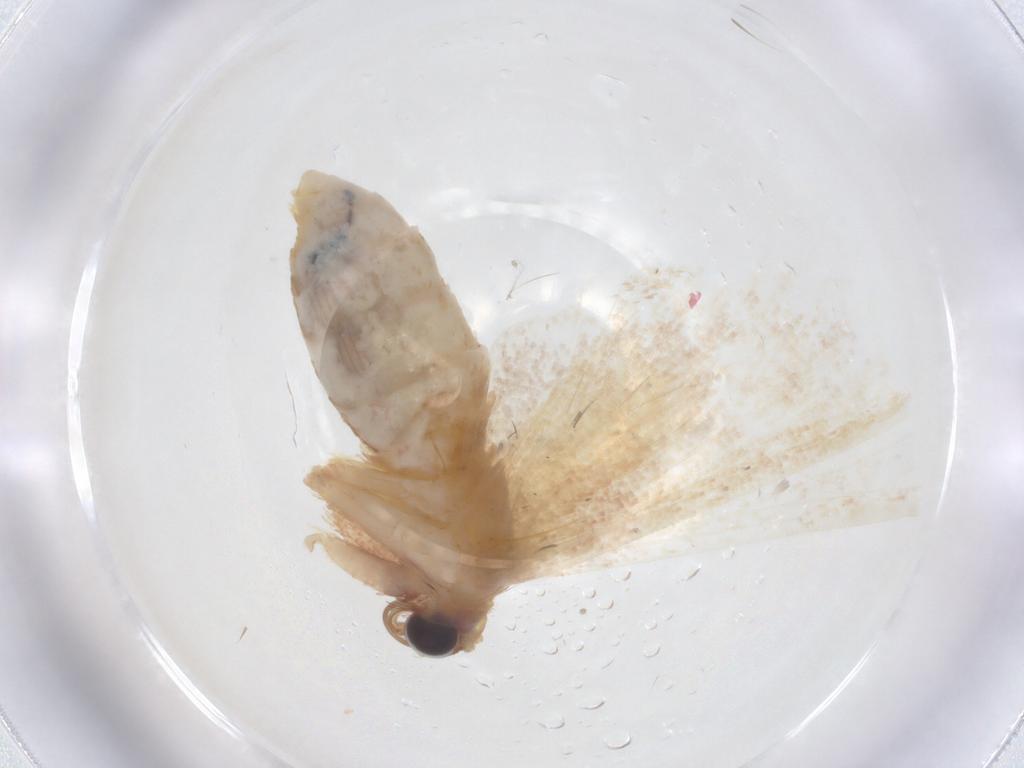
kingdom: Animalia
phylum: Arthropoda
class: Insecta
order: Lepidoptera
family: Geometridae
